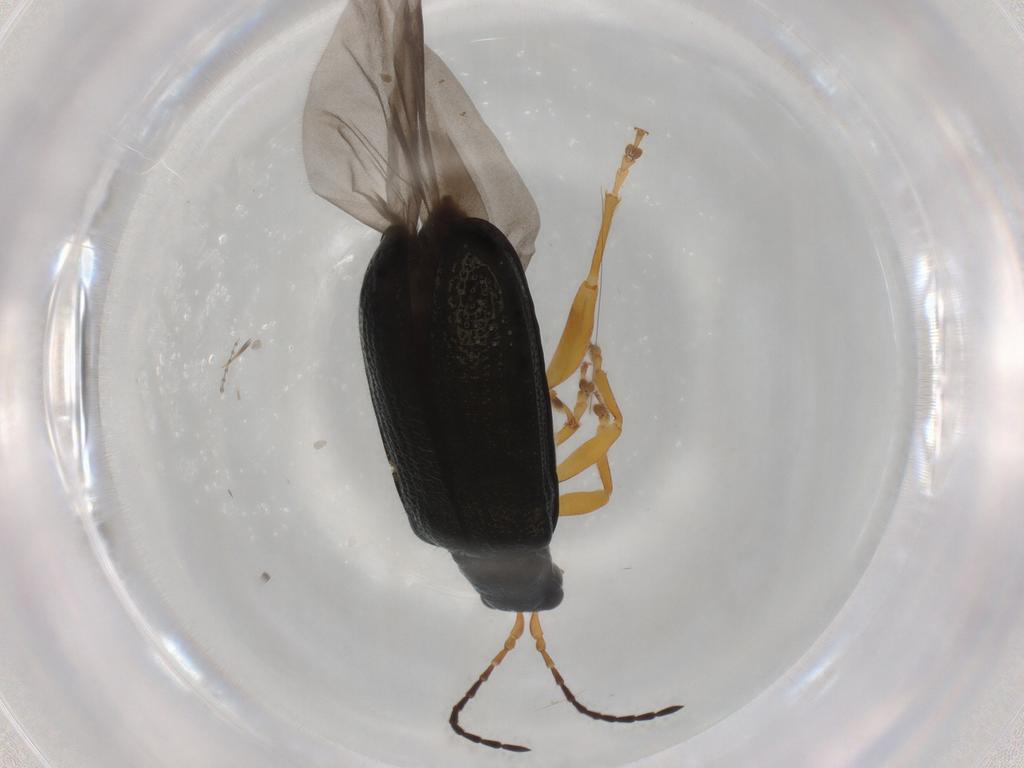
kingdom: Animalia
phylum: Arthropoda
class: Insecta
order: Coleoptera
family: Chrysomelidae
